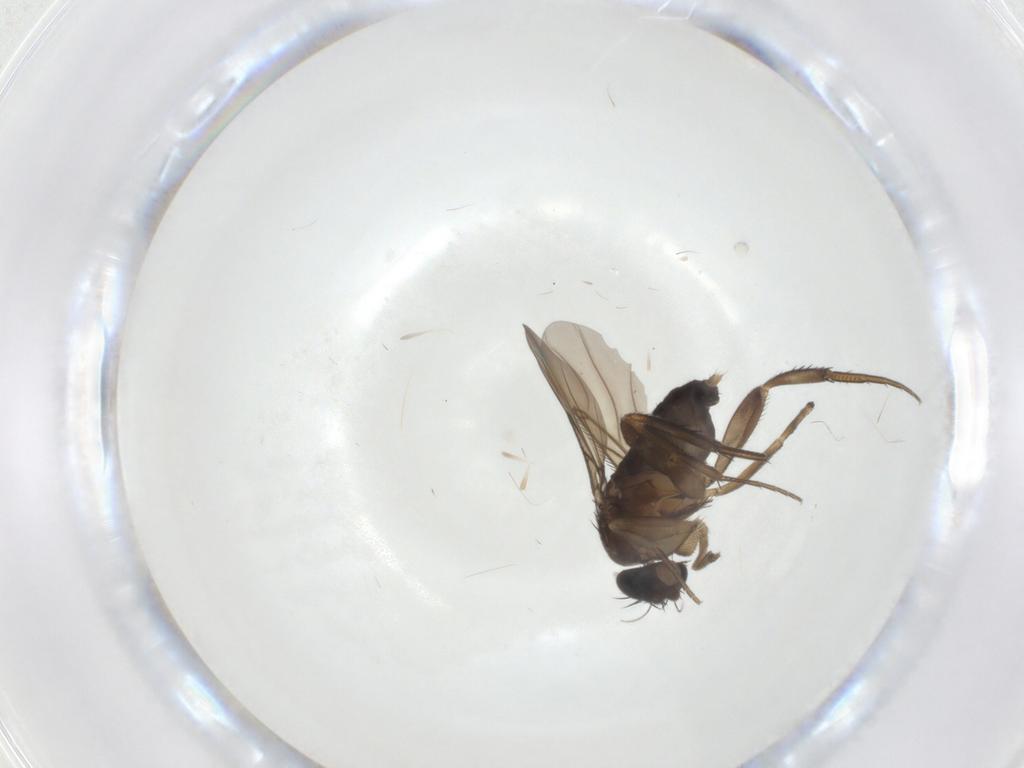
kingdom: Animalia
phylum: Arthropoda
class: Insecta
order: Diptera
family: Phoridae
